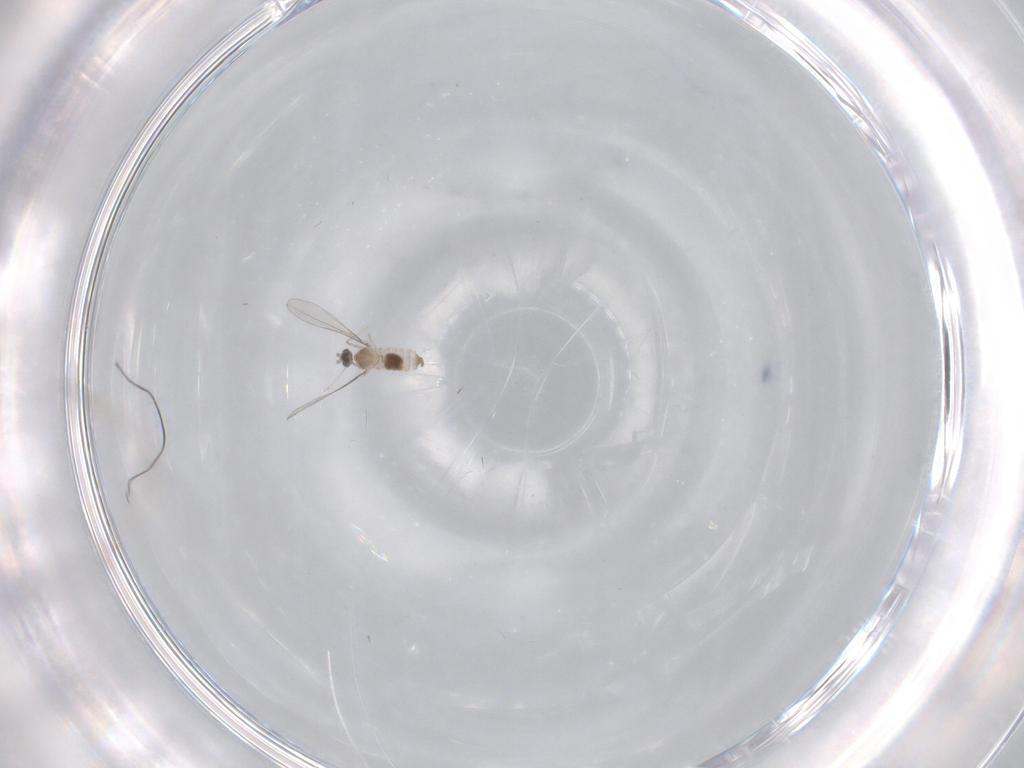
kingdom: Animalia
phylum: Arthropoda
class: Insecta
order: Diptera
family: Cecidomyiidae
